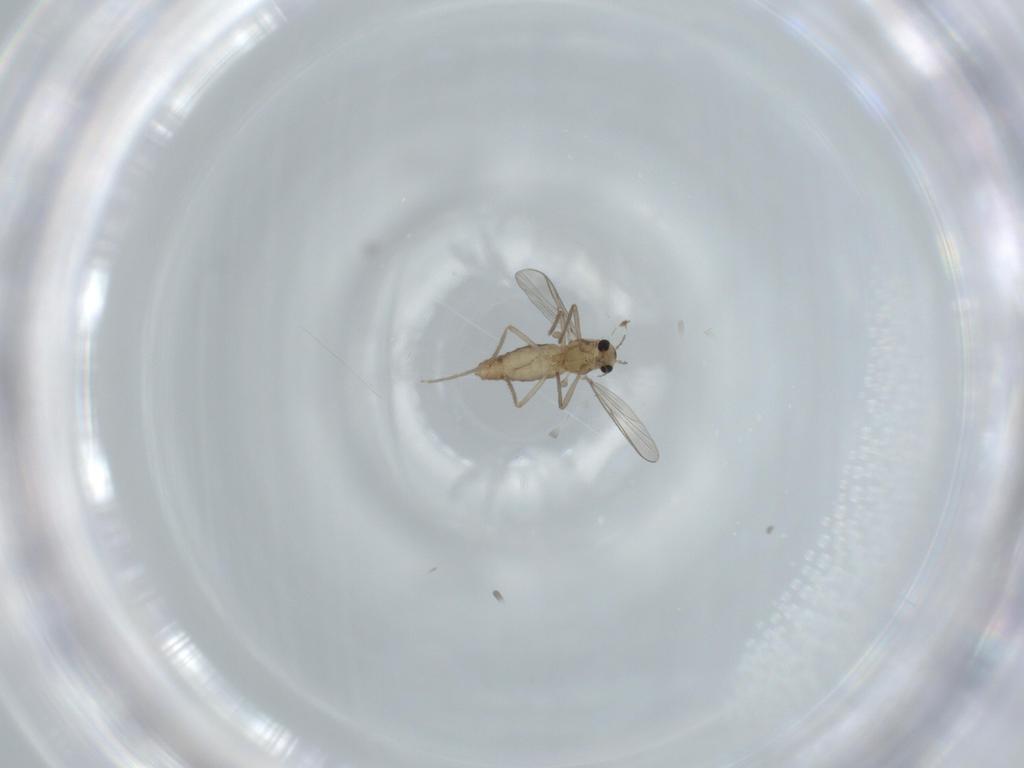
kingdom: Animalia
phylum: Arthropoda
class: Insecta
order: Diptera
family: Chironomidae
